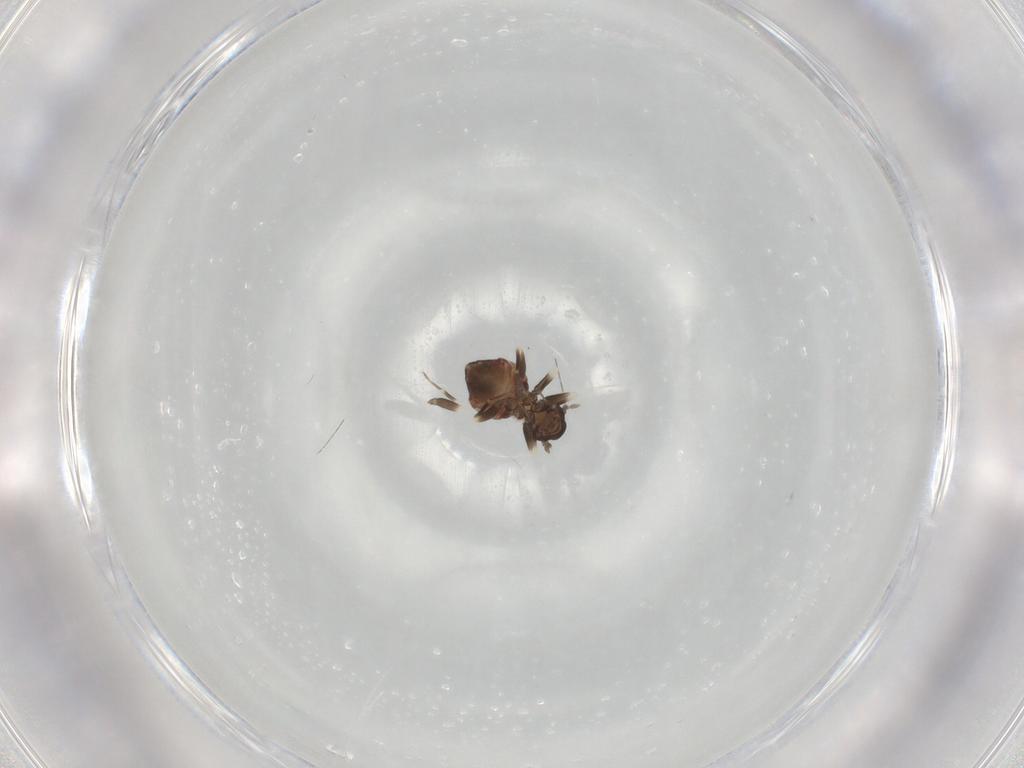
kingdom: Animalia
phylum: Arthropoda
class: Insecta
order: Psocodea
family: Lepidopsocidae
